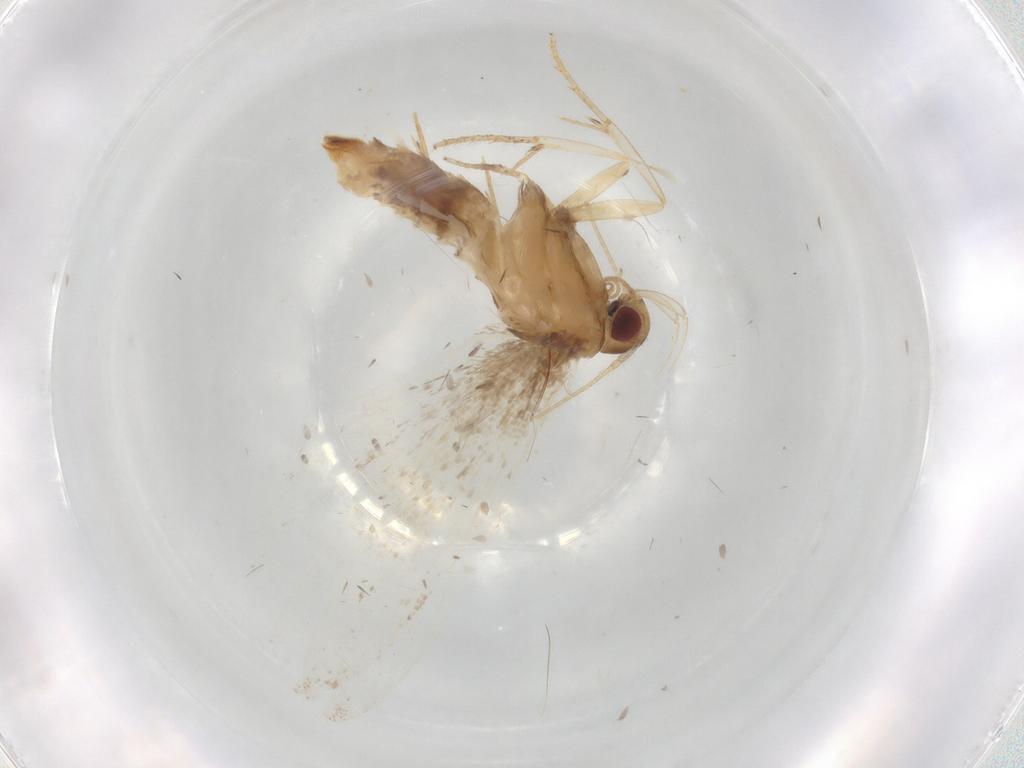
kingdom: Animalia
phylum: Arthropoda
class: Insecta
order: Lepidoptera
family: Gelechiidae
